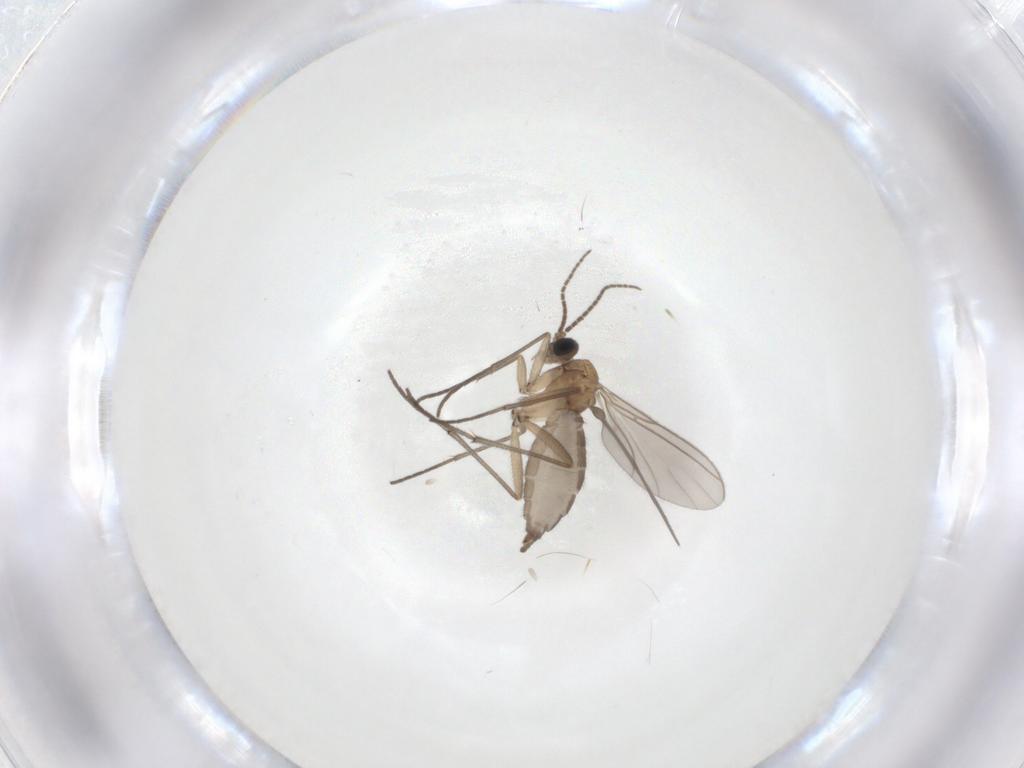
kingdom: Animalia
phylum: Arthropoda
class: Insecta
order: Diptera
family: Sciaridae
